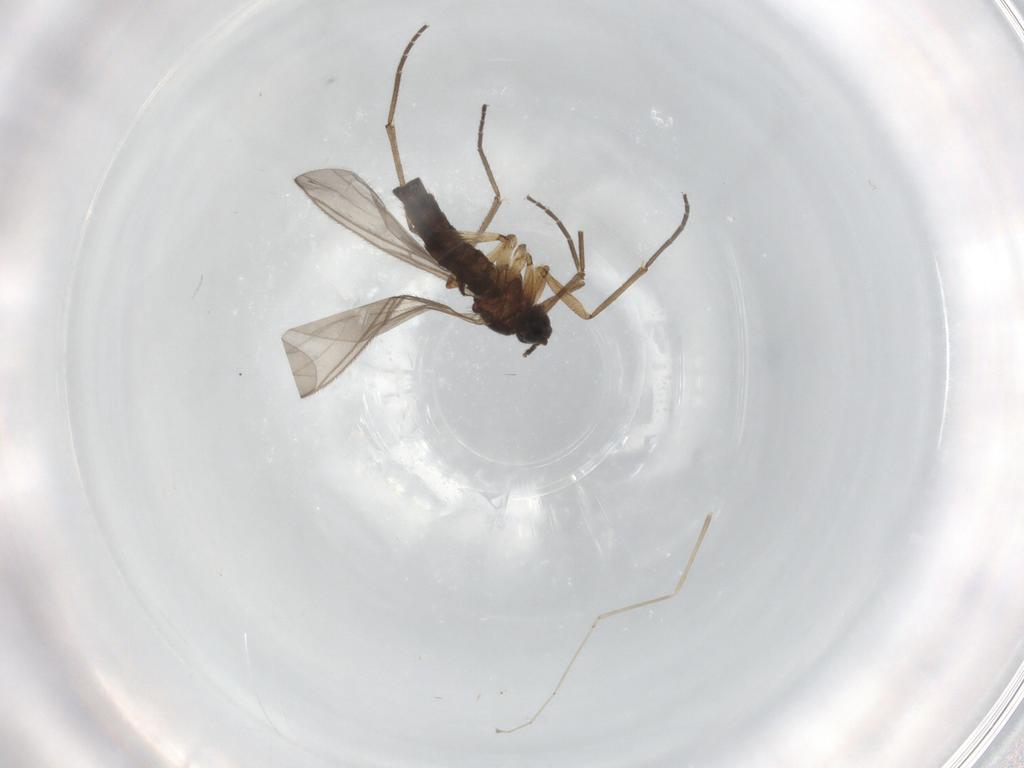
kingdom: Animalia
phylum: Arthropoda
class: Insecta
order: Diptera
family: Sciaridae
